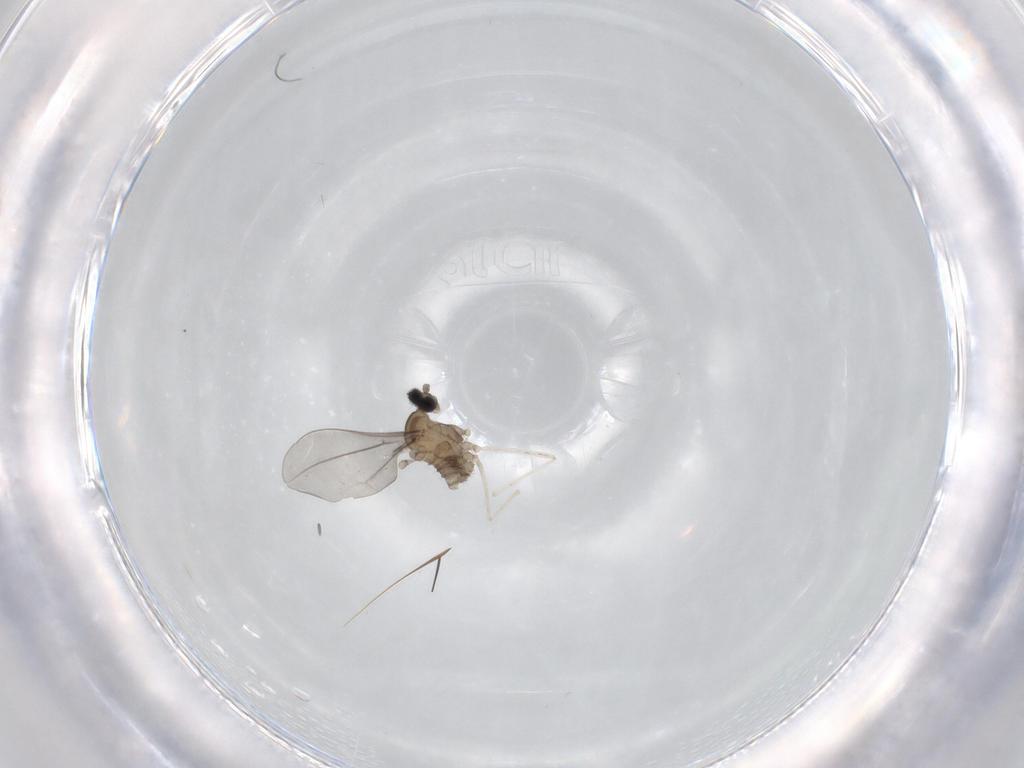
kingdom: Animalia
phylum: Arthropoda
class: Insecta
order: Diptera
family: Cecidomyiidae
